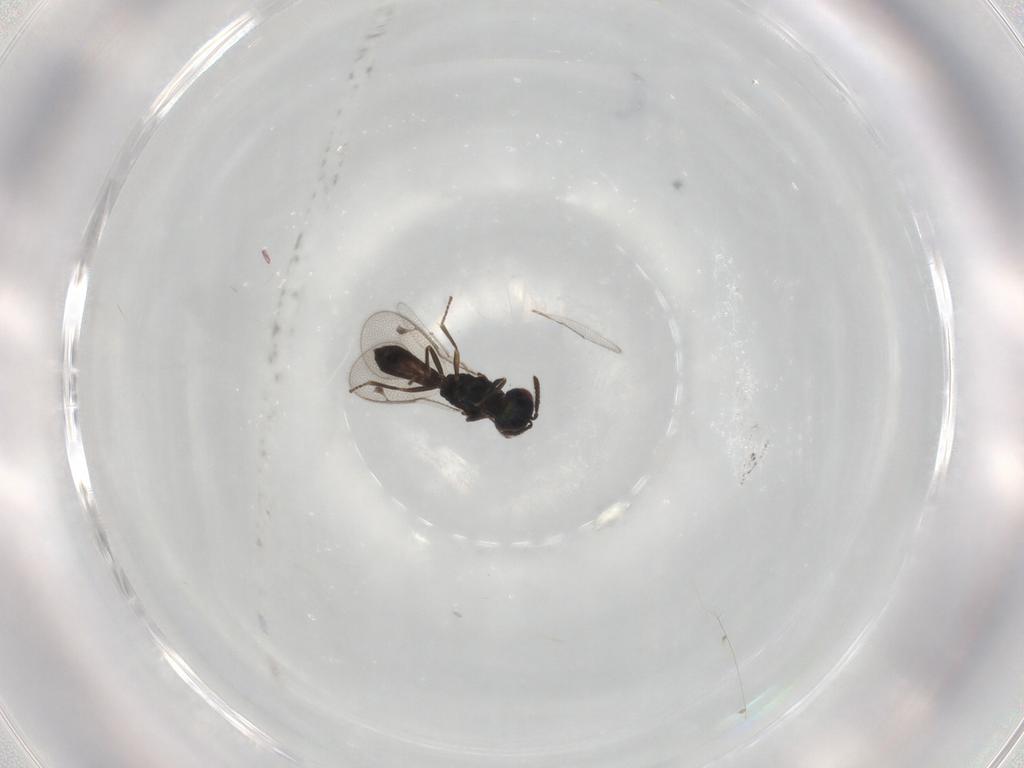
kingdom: Animalia
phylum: Arthropoda
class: Insecta
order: Hymenoptera
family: Pteromalidae
